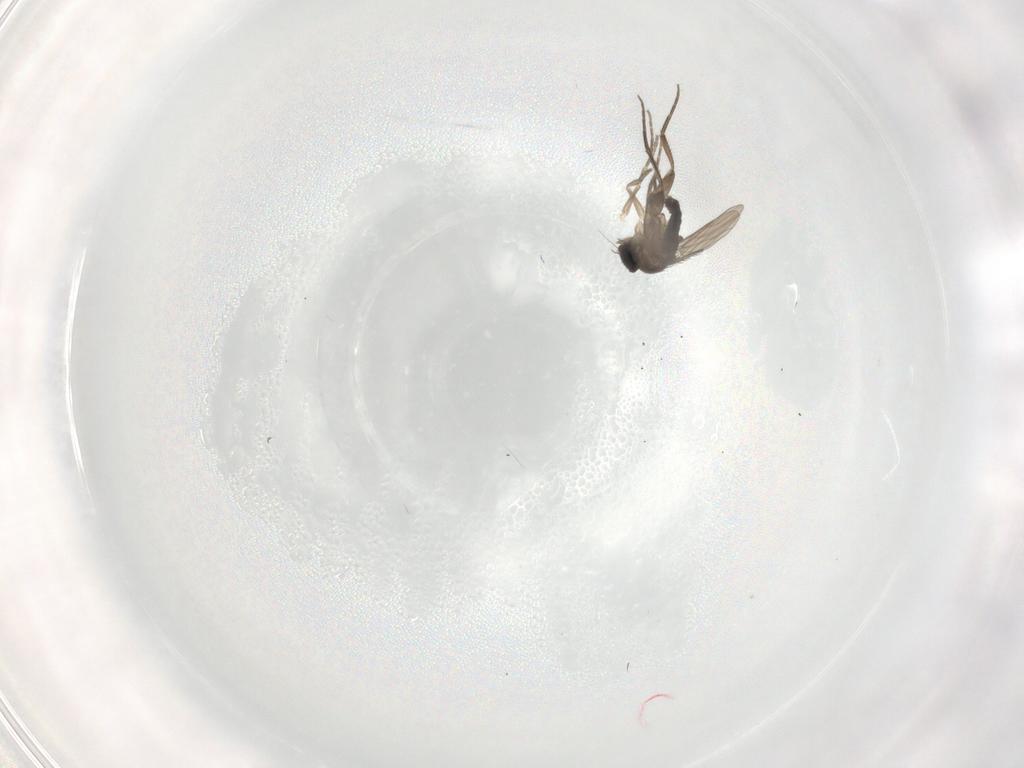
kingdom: Animalia
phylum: Arthropoda
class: Insecta
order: Diptera
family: Phoridae
